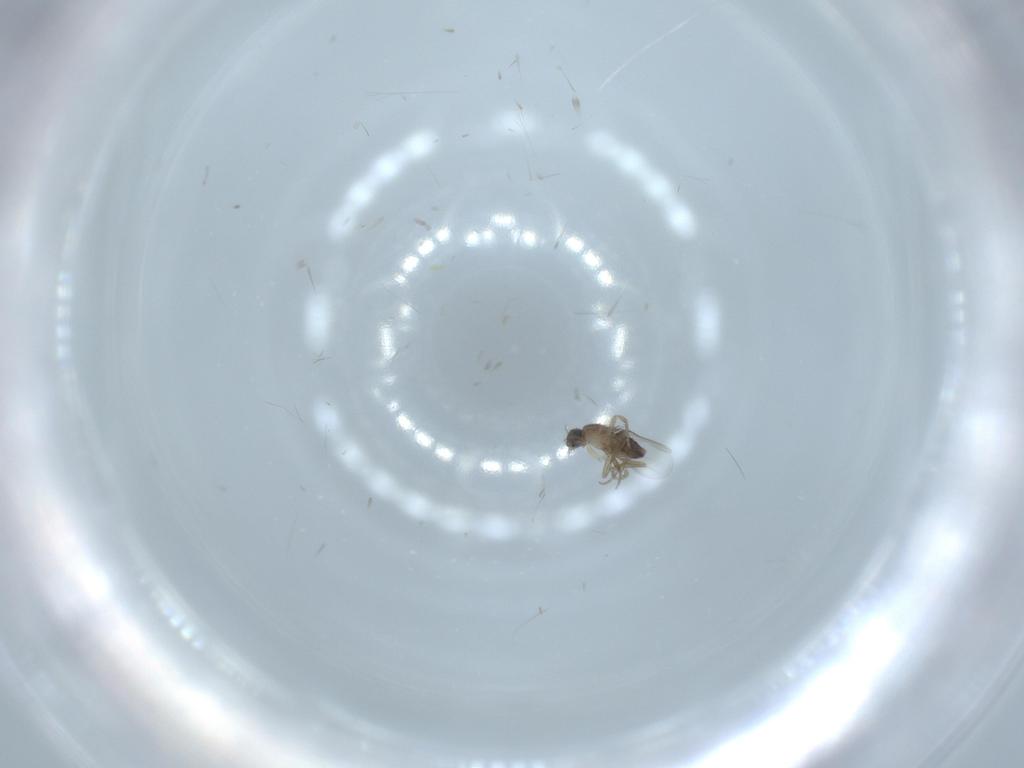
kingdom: Animalia
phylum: Arthropoda
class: Insecta
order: Diptera
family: Phoridae
